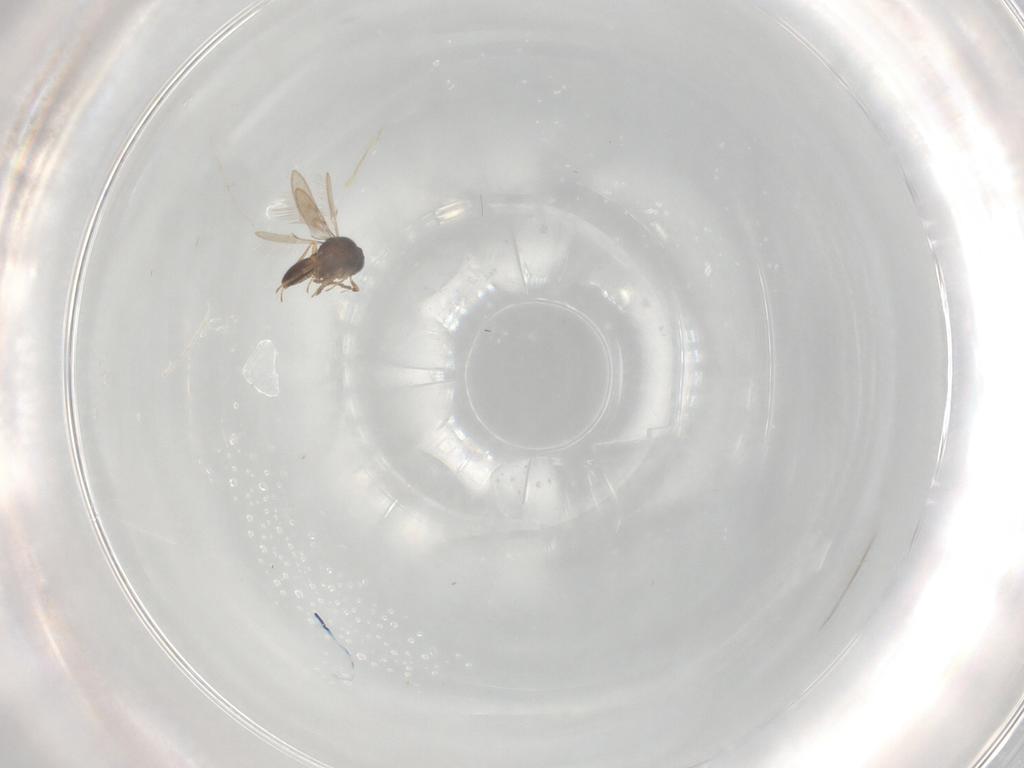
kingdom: Animalia
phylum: Arthropoda
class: Insecta
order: Hymenoptera
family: Scelionidae
